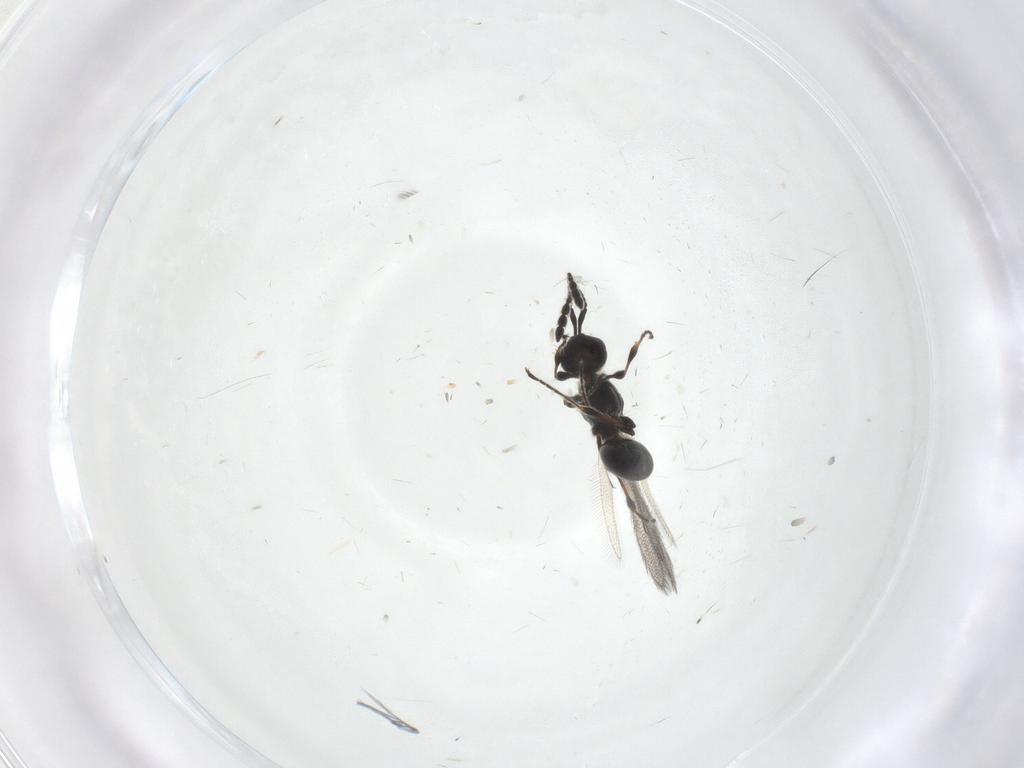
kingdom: Animalia
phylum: Arthropoda
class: Insecta
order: Hymenoptera
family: Diapriidae
